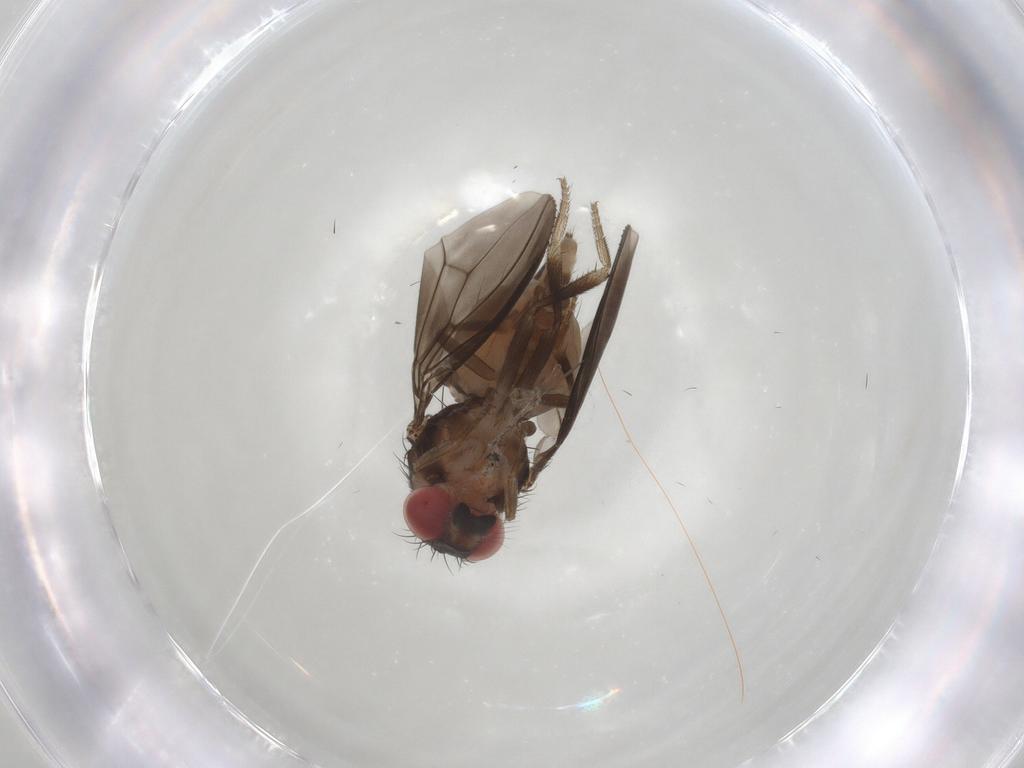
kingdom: Animalia
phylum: Arthropoda
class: Insecta
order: Diptera
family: Drosophilidae
